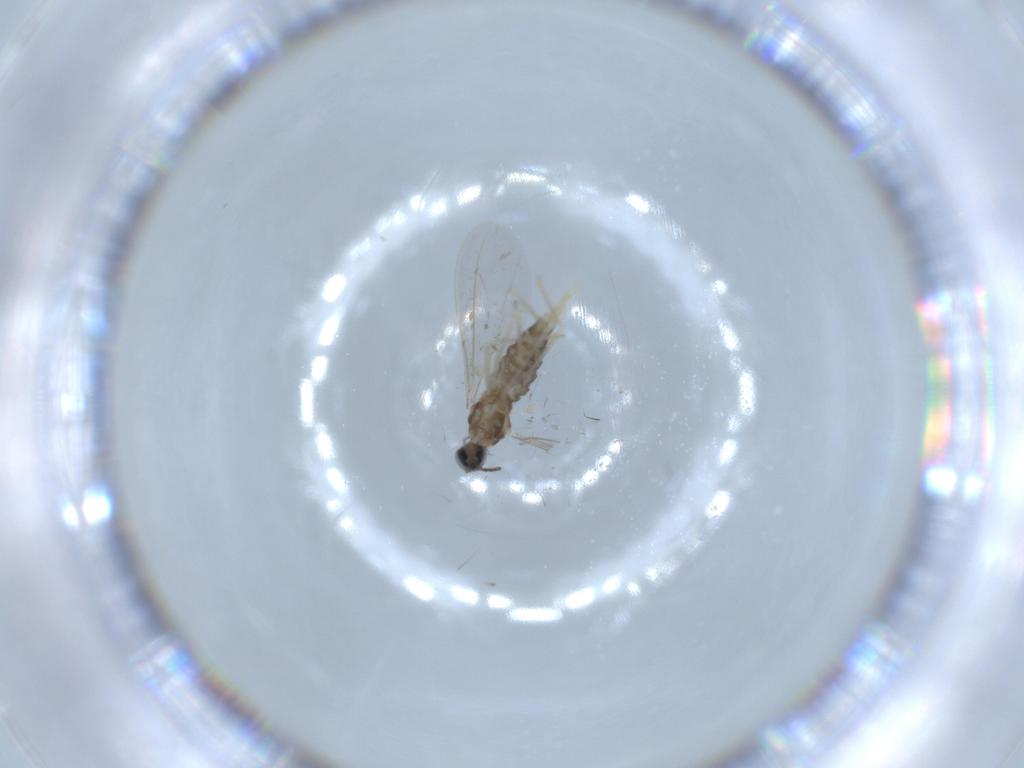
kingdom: Animalia
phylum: Arthropoda
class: Insecta
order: Diptera
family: Cecidomyiidae
